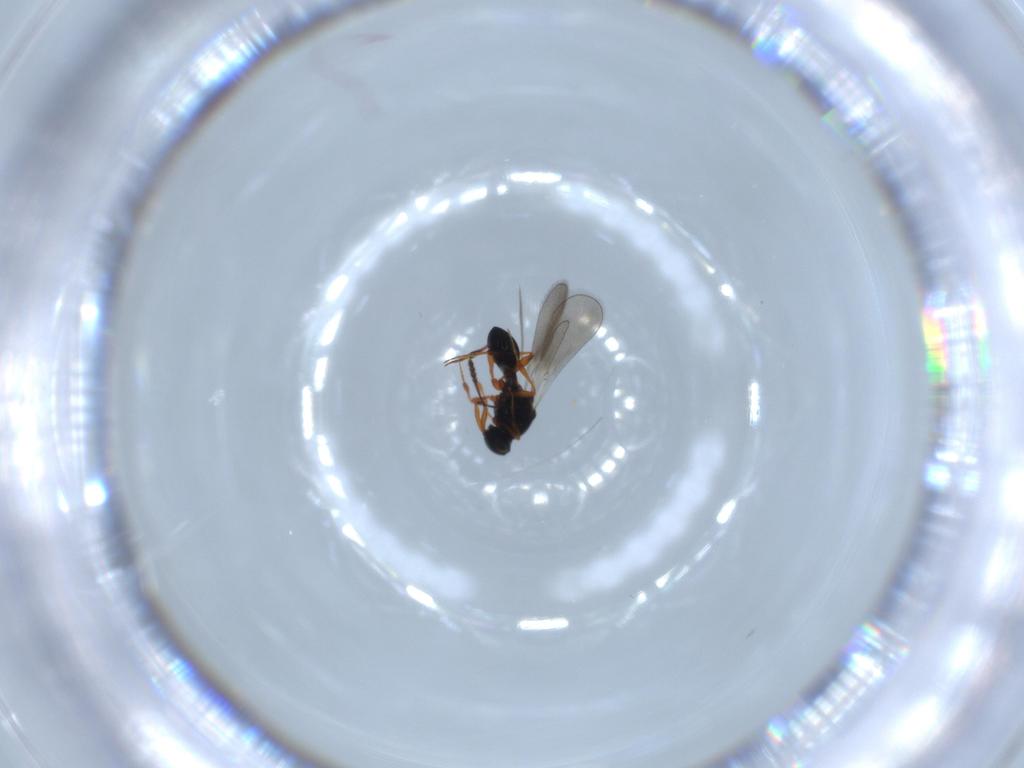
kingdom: Animalia
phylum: Arthropoda
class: Insecta
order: Hymenoptera
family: Platygastridae
